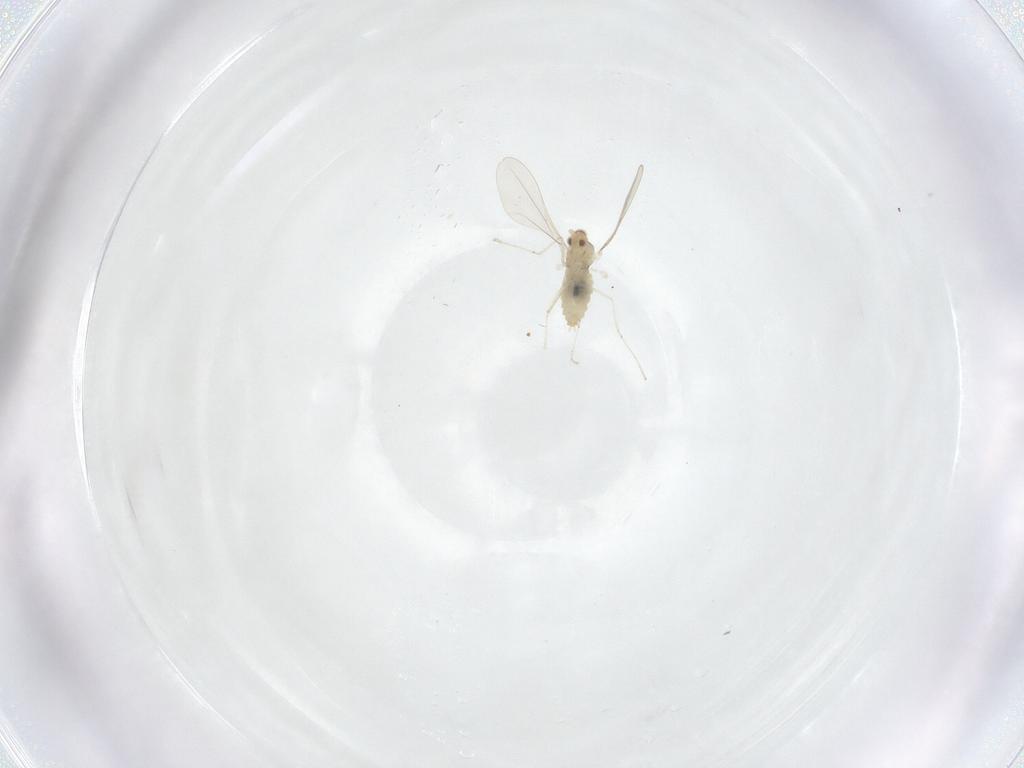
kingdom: Animalia
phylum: Arthropoda
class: Insecta
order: Diptera
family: Cecidomyiidae
